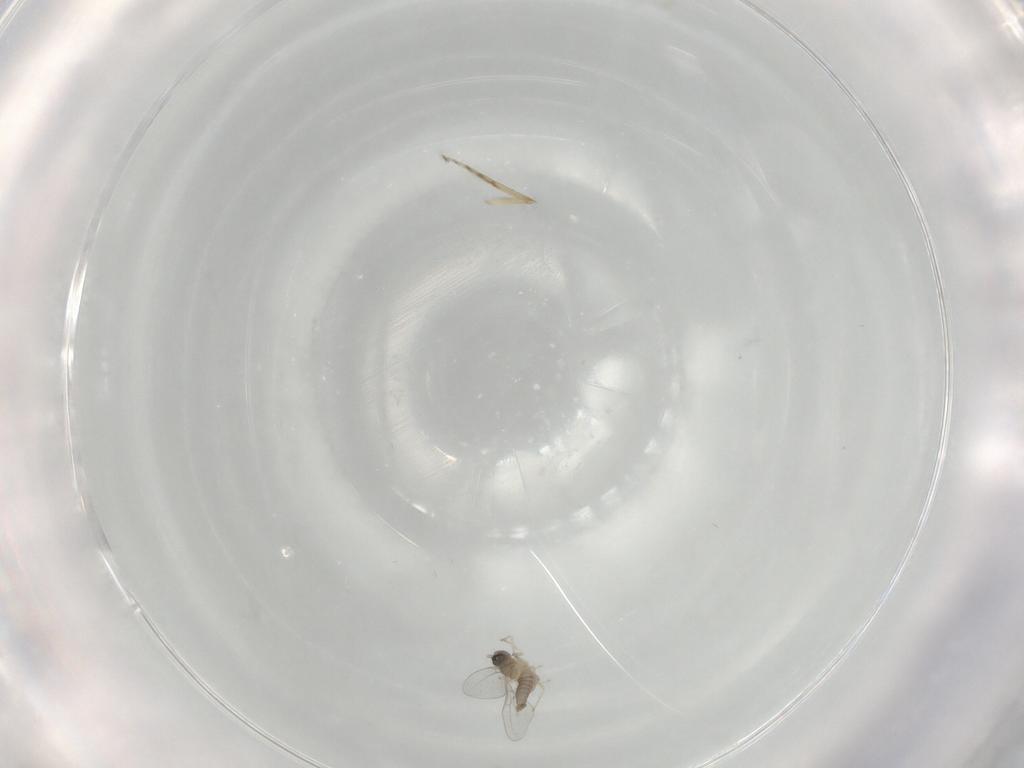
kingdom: Animalia
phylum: Arthropoda
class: Insecta
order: Diptera
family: Cecidomyiidae
